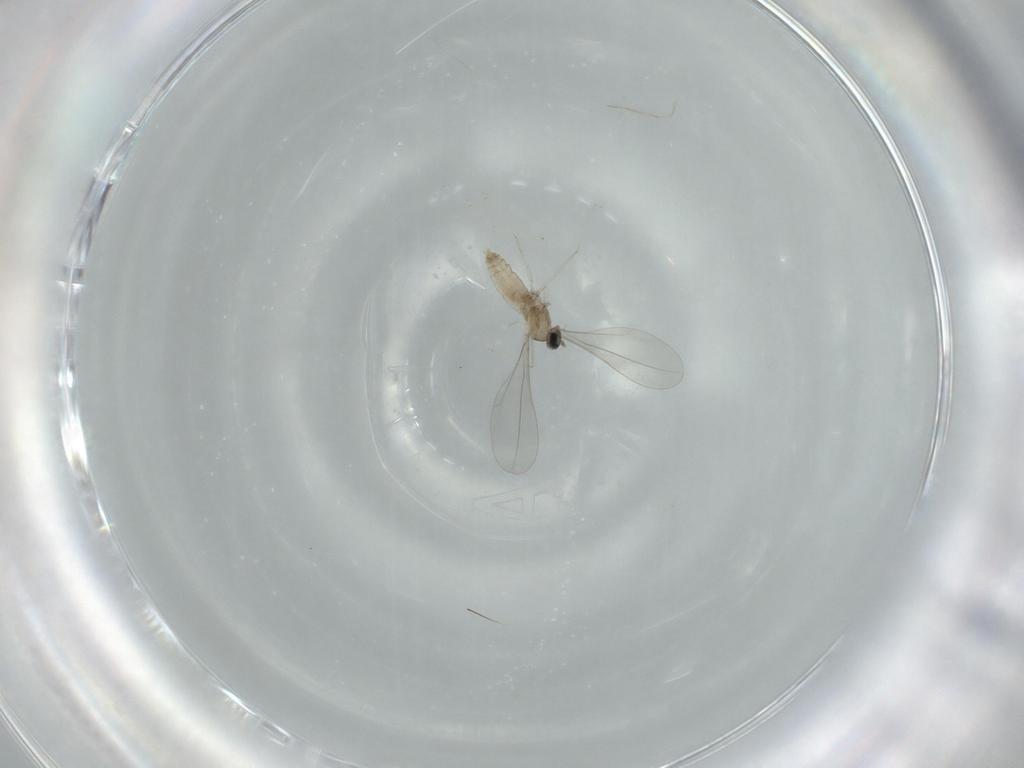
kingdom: Animalia
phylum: Arthropoda
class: Insecta
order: Diptera
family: Cecidomyiidae
